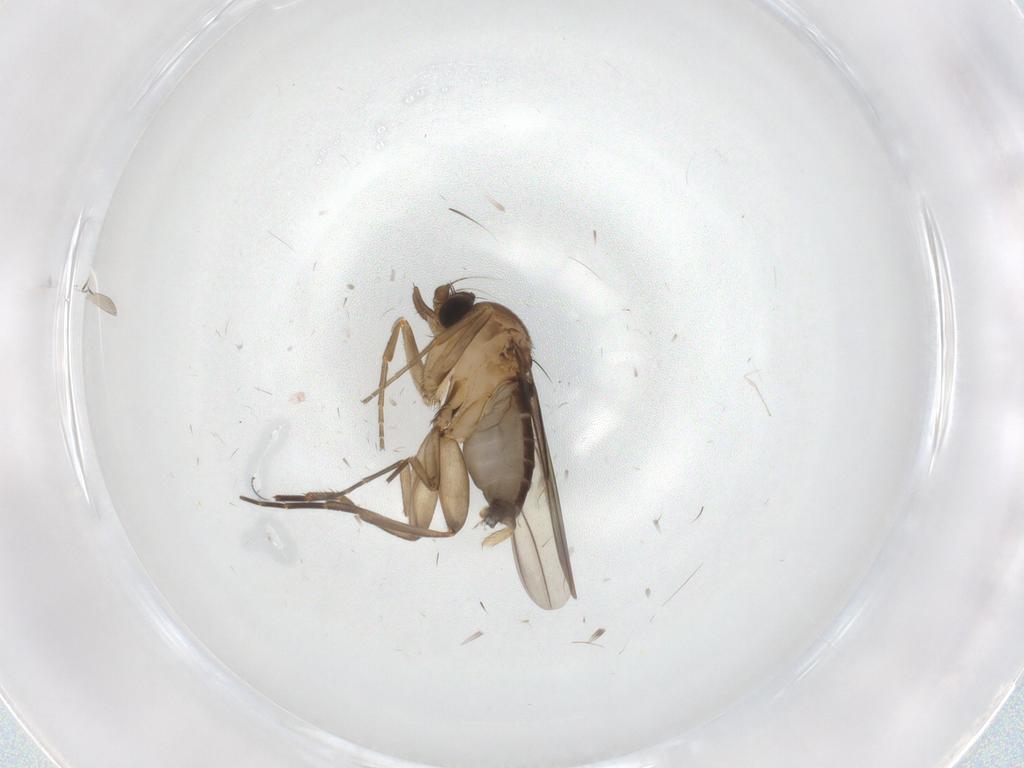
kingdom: Animalia
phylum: Arthropoda
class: Insecta
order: Diptera
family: Phoridae
